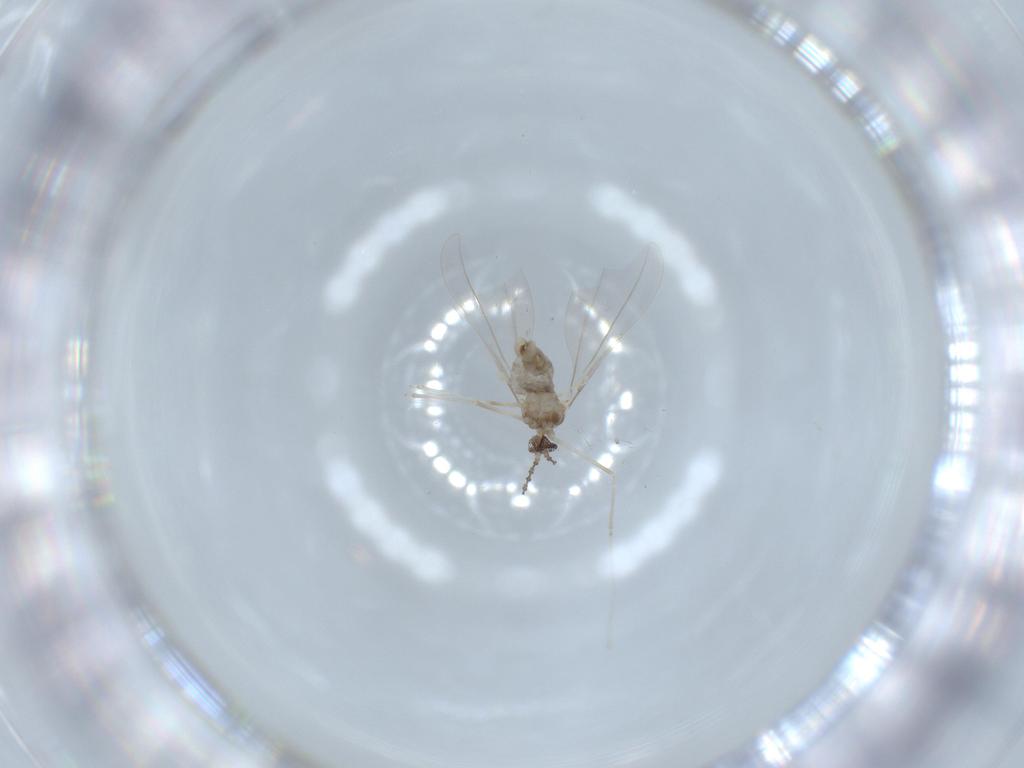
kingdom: Animalia
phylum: Arthropoda
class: Insecta
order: Diptera
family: Cecidomyiidae
